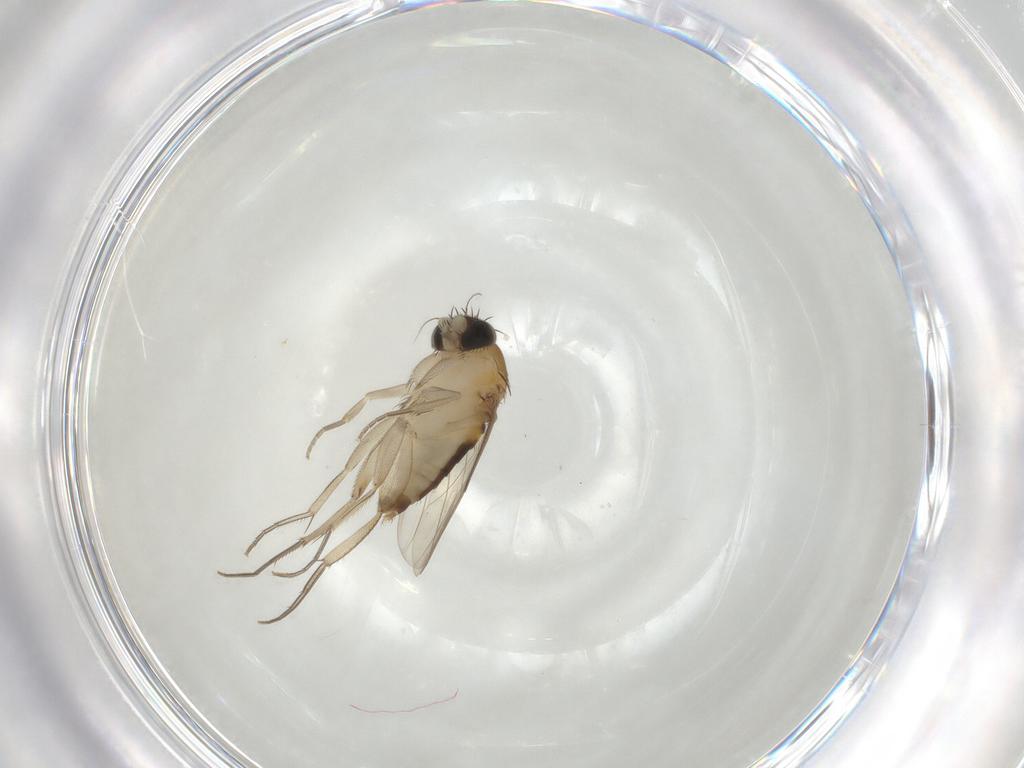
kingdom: Animalia
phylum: Arthropoda
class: Insecta
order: Diptera
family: Phoridae
